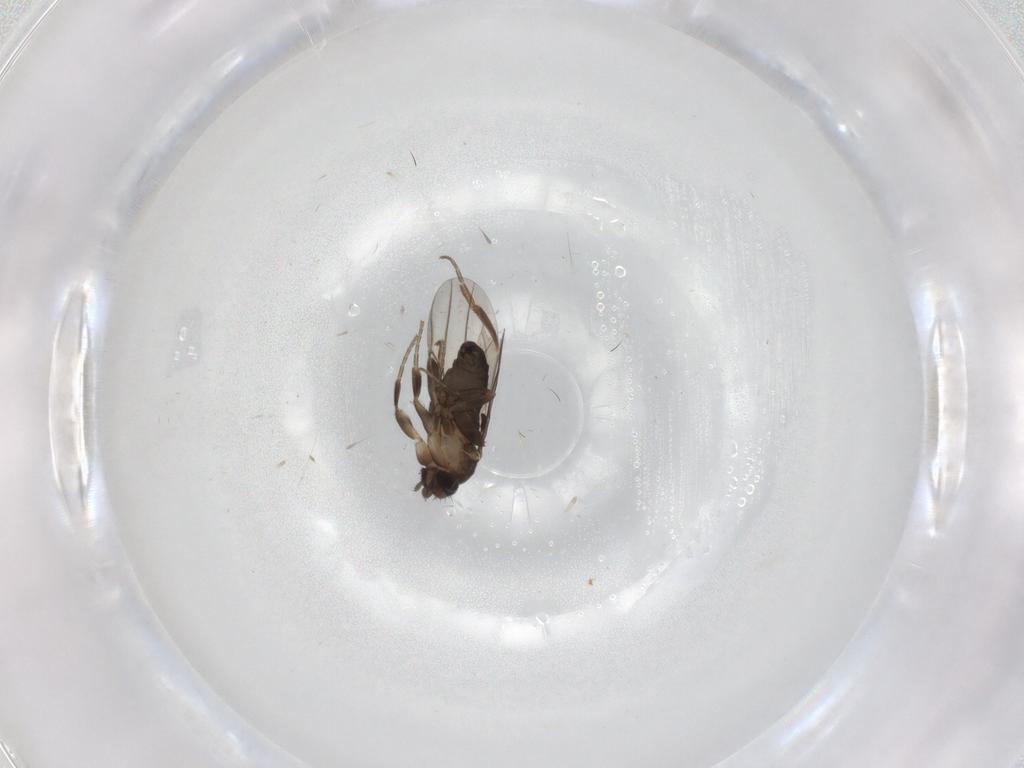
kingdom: Animalia
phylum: Arthropoda
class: Insecta
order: Diptera
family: Phoridae
